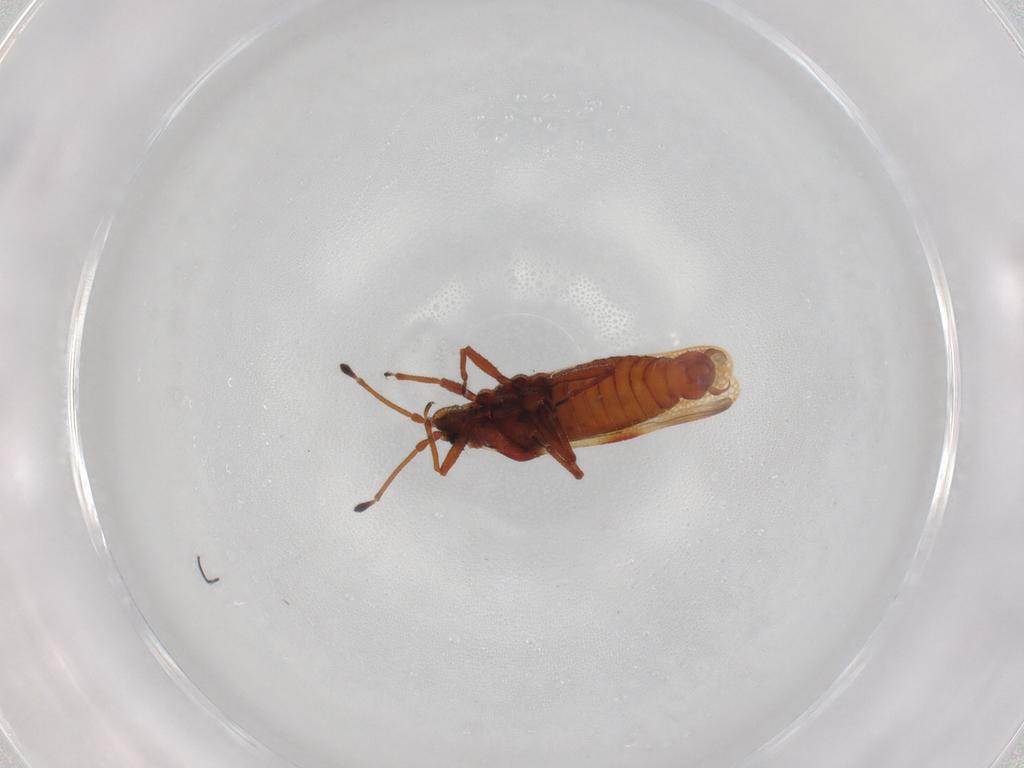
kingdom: Animalia
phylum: Arthropoda
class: Insecta
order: Hemiptera
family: Miridae
